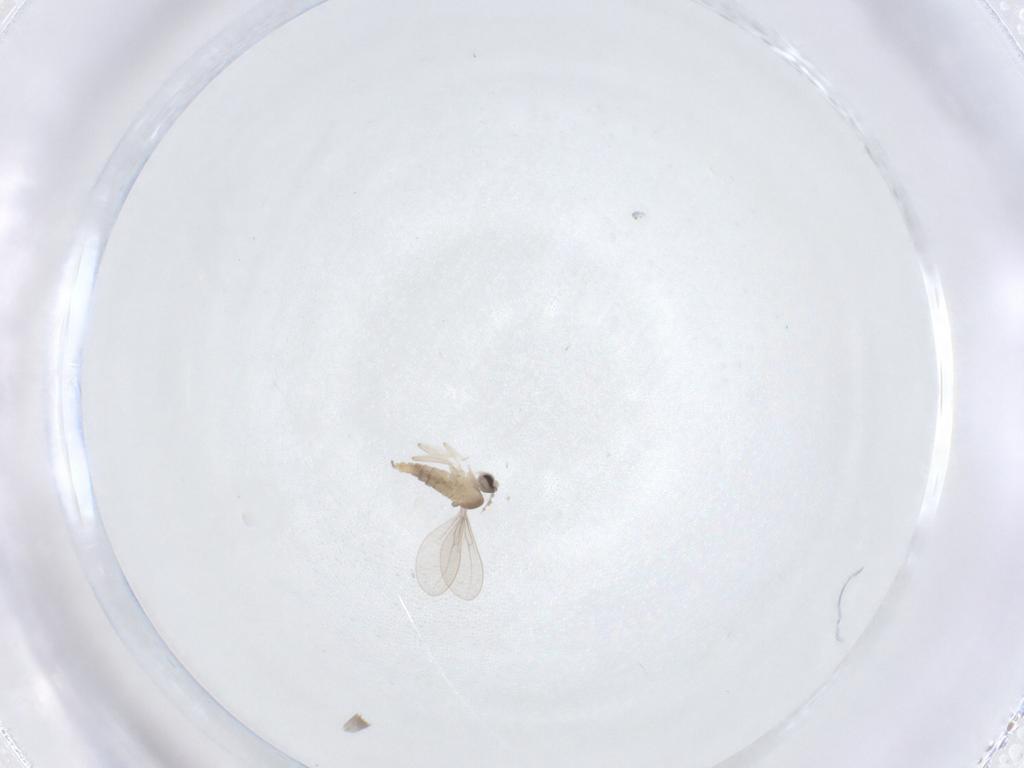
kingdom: Animalia
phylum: Arthropoda
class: Insecta
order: Diptera
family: Cecidomyiidae
